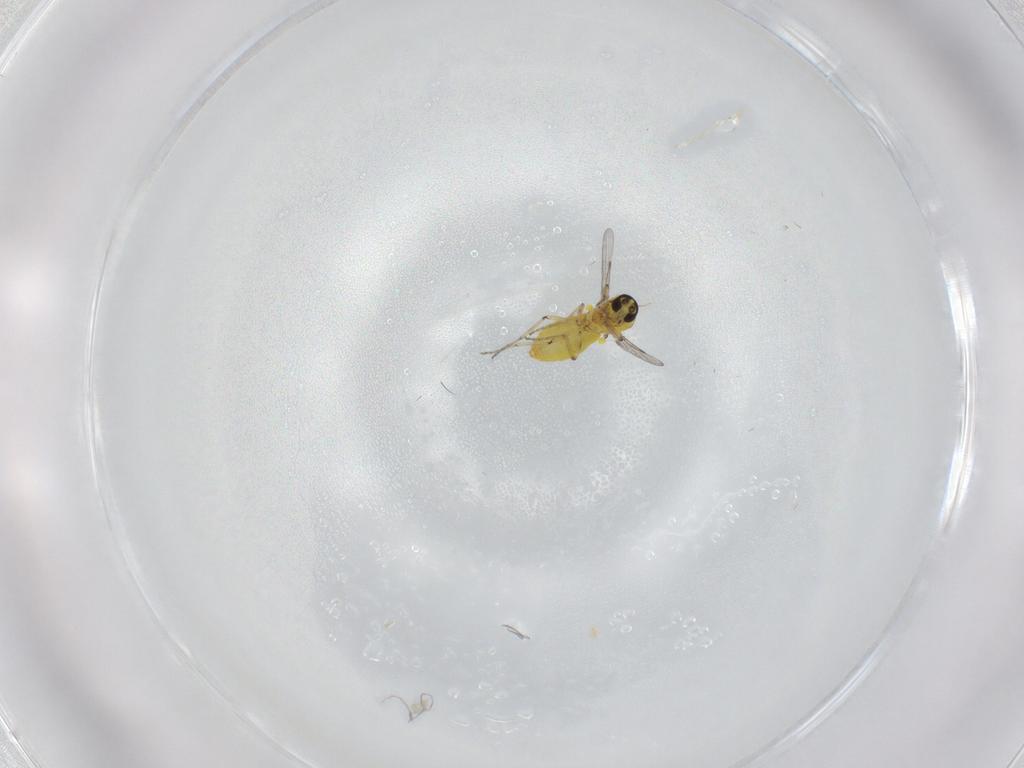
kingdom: Animalia
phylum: Arthropoda
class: Insecta
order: Diptera
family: Ceratopogonidae
